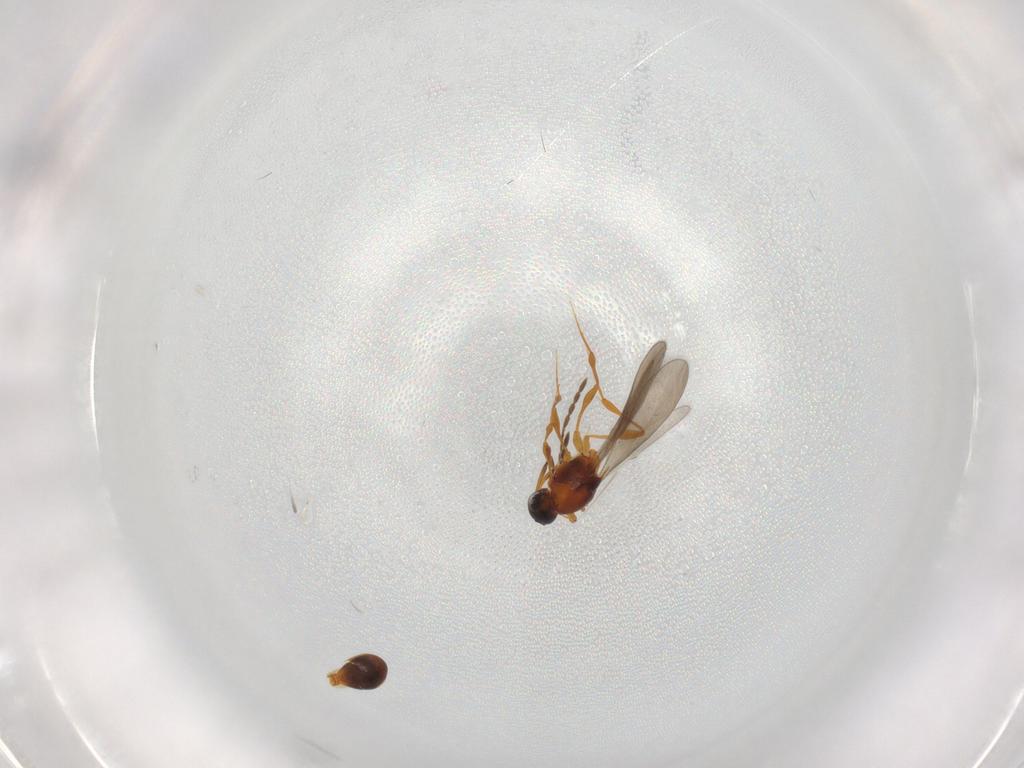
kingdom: Animalia
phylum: Arthropoda
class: Insecta
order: Hymenoptera
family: Platygastridae
